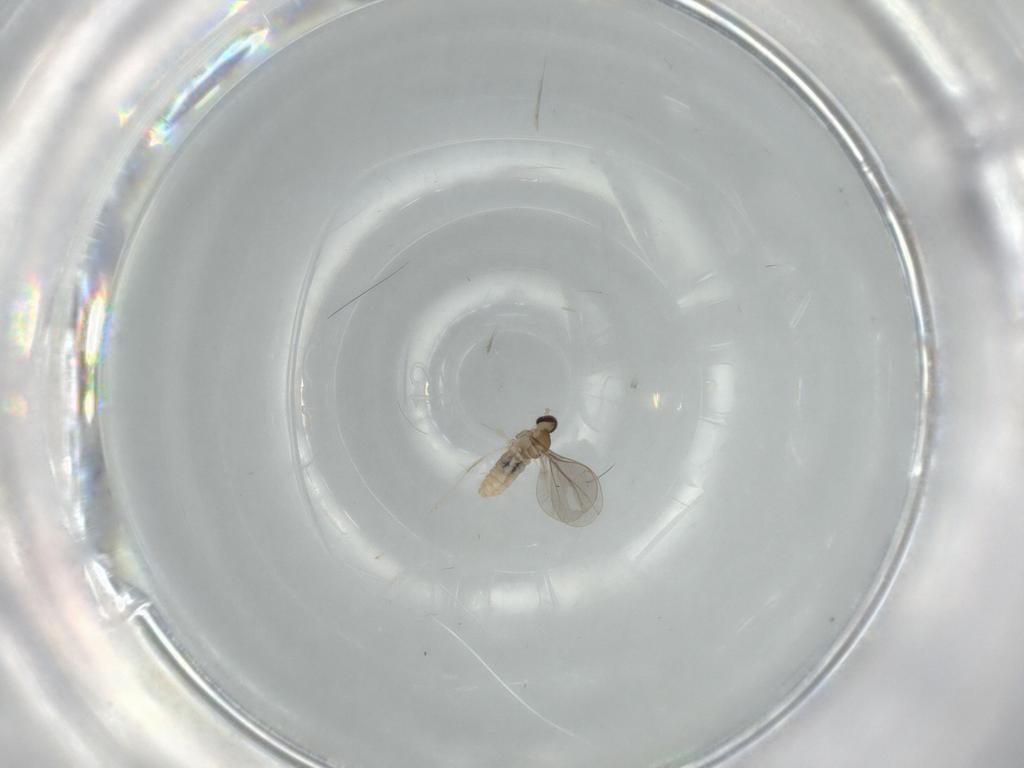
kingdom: Animalia
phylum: Arthropoda
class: Insecta
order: Diptera
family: Cecidomyiidae
